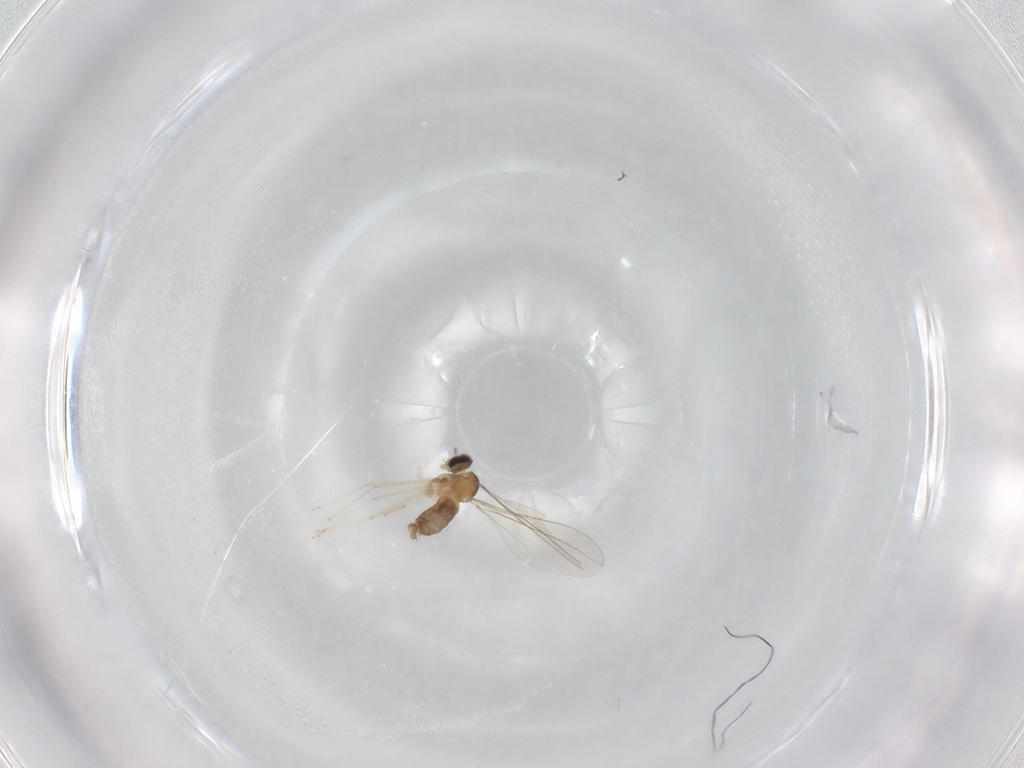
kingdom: Animalia
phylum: Arthropoda
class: Insecta
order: Diptera
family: Cecidomyiidae
